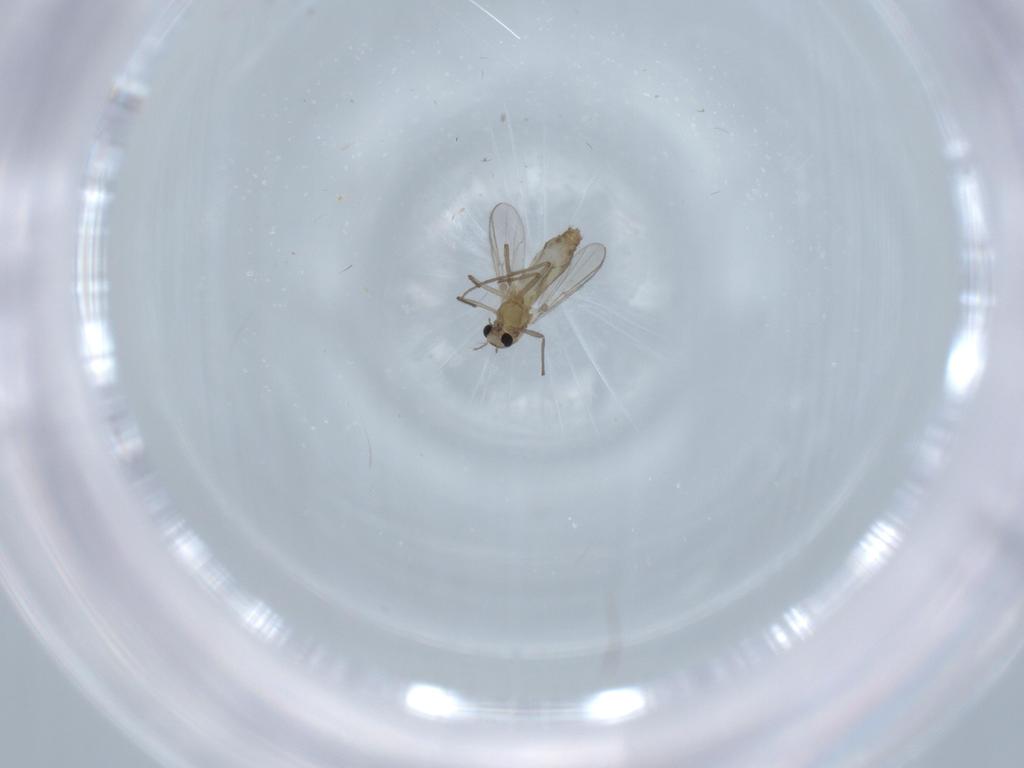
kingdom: Animalia
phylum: Arthropoda
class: Insecta
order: Diptera
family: Chironomidae
